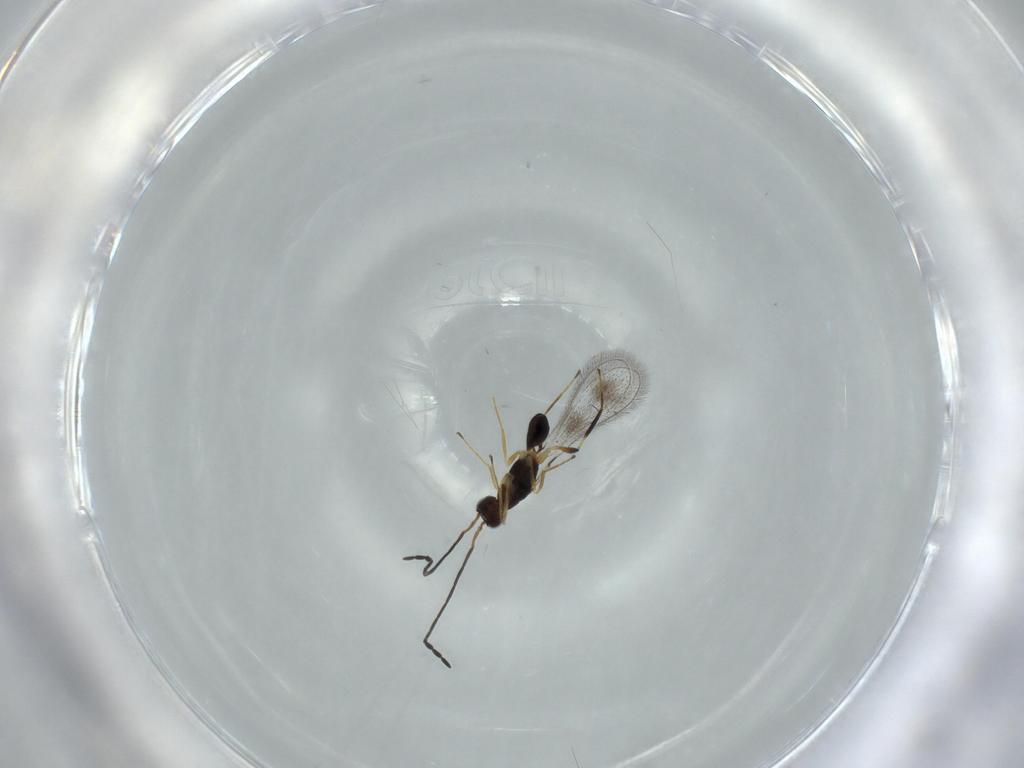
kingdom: Animalia
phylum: Arthropoda
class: Insecta
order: Hymenoptera
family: Mymaridae
